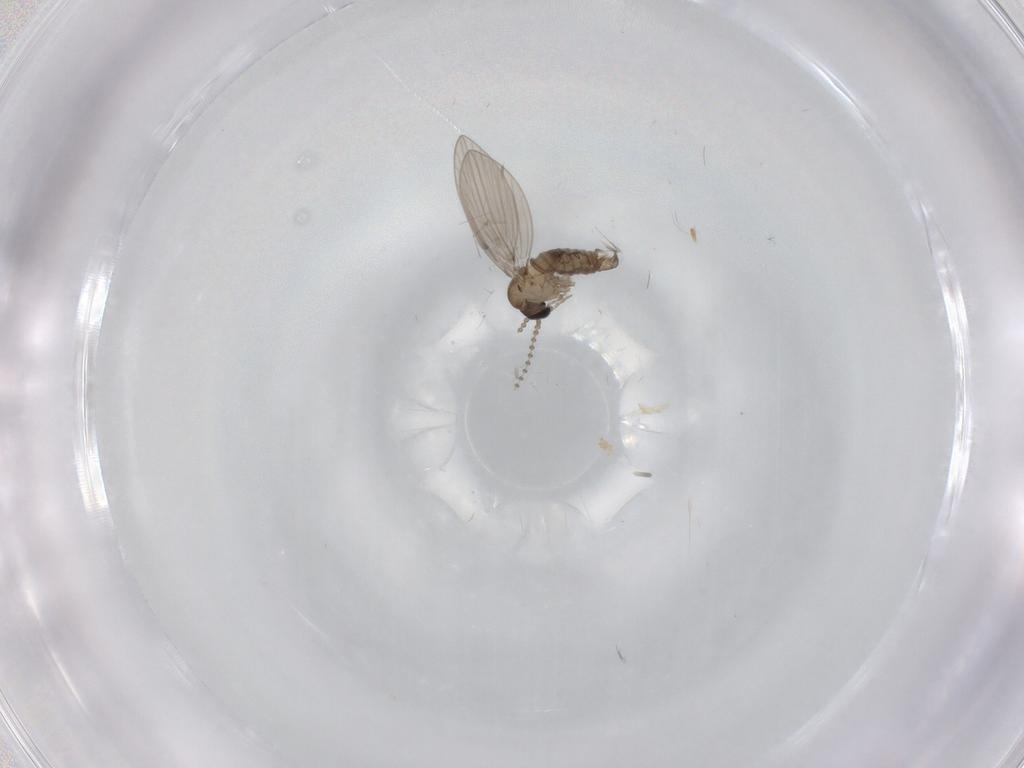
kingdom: Animalia
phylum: Arthropoda
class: Insecta
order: Diptera
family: Psychodidae
